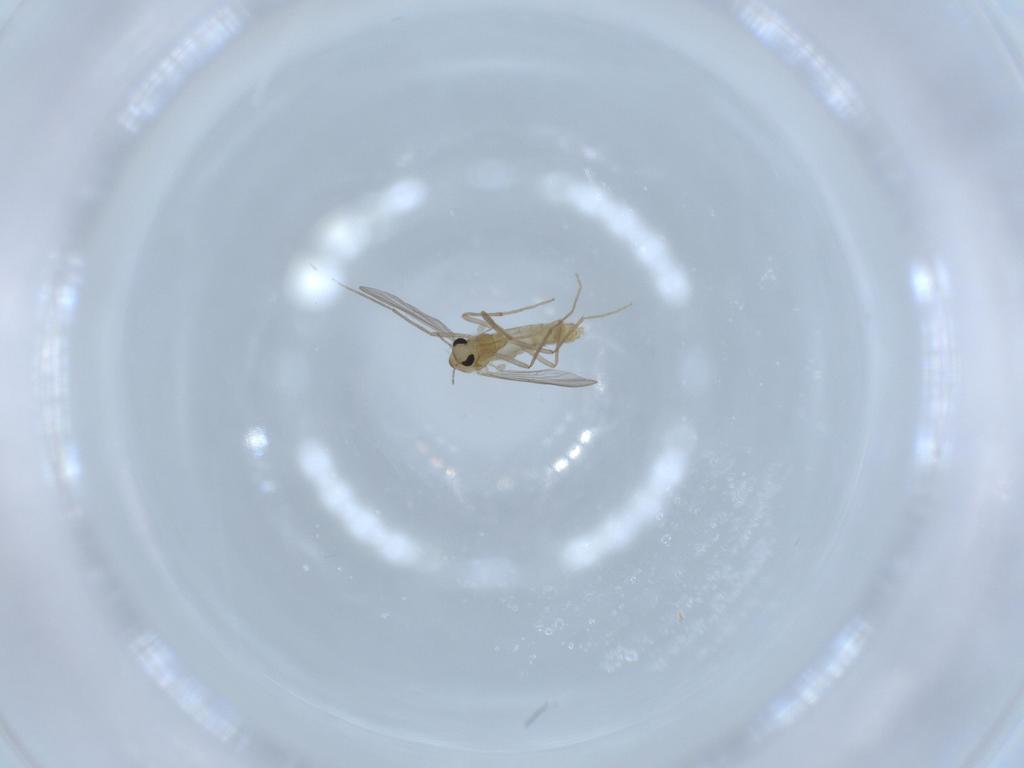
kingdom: Animalia
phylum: Arthropoda
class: Insecta
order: Diptera
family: Chironomidae
